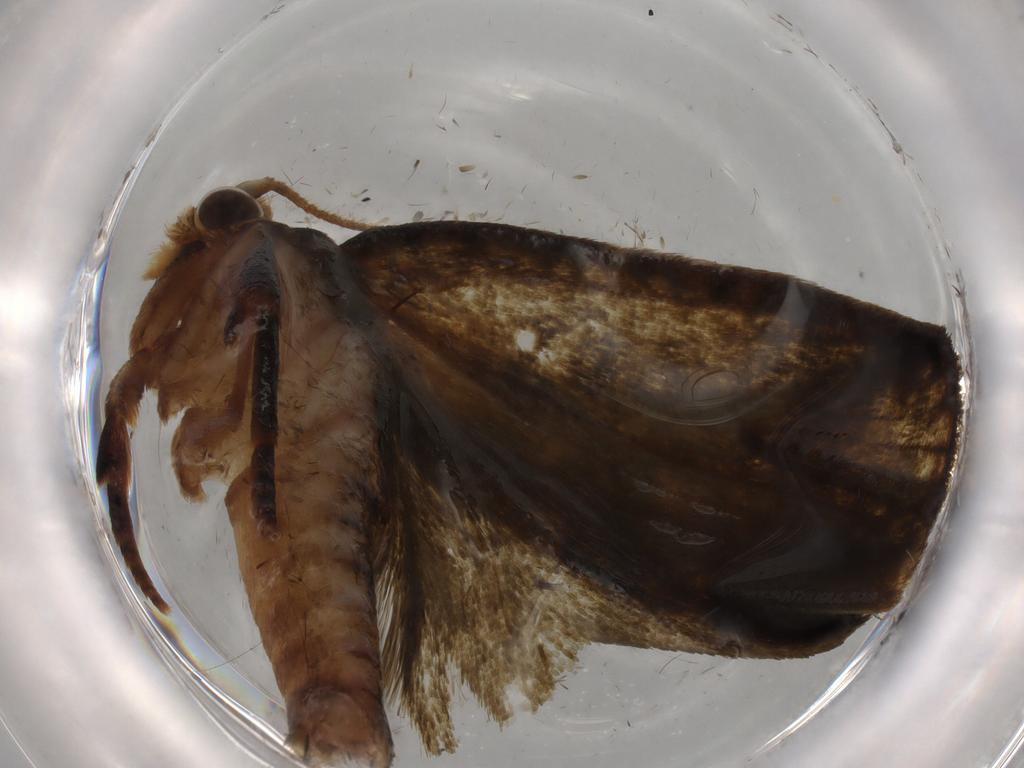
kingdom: Animalia
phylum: Arthropoda
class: Insecta
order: Lepidoptera
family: Geometridae
